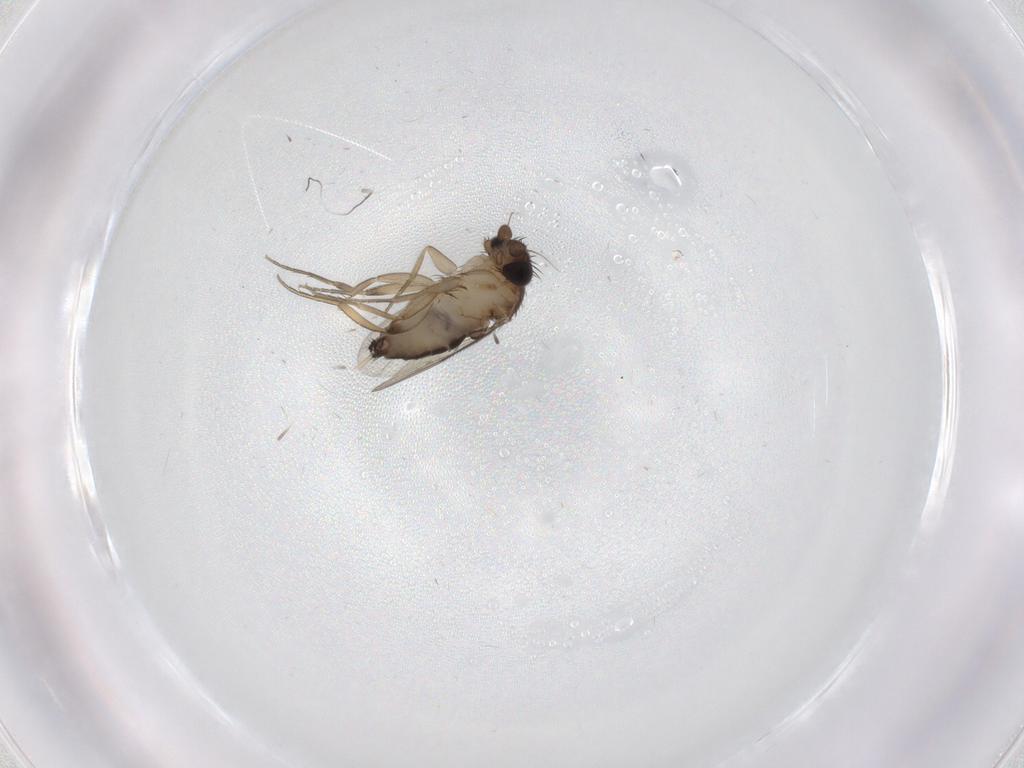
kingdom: Animalia
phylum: Arthropoda
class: Insecta
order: Diptera
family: Phoridae
